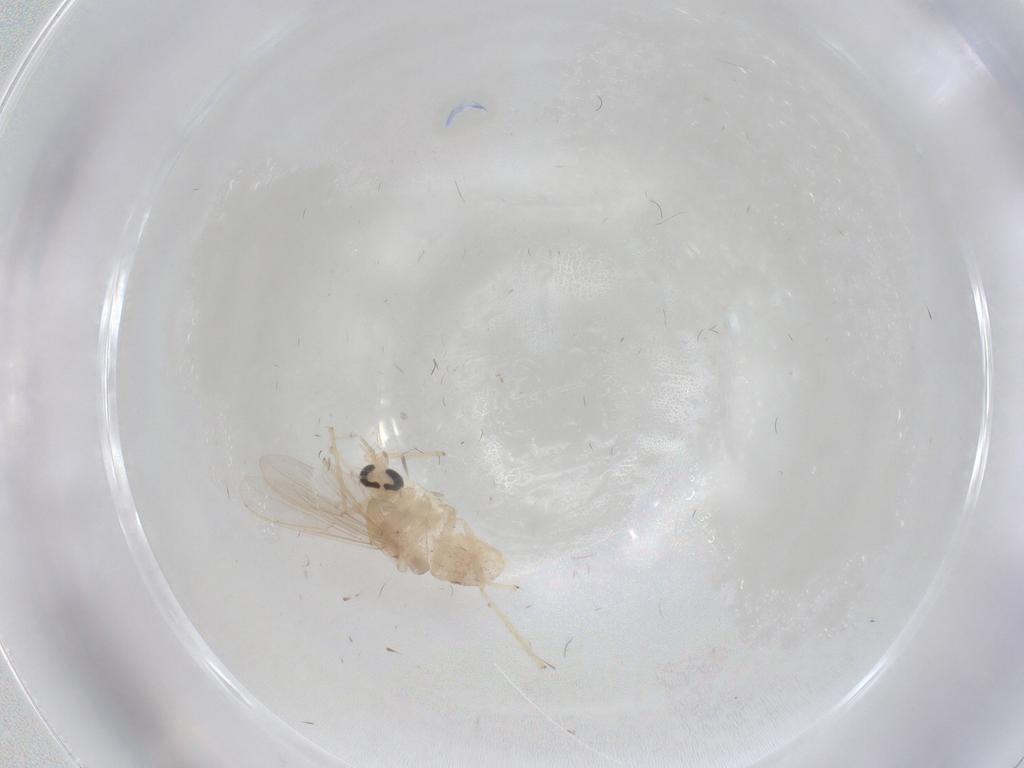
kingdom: Animalia
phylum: Arthropoda
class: Insecta
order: Diptera
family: Chironomidae
